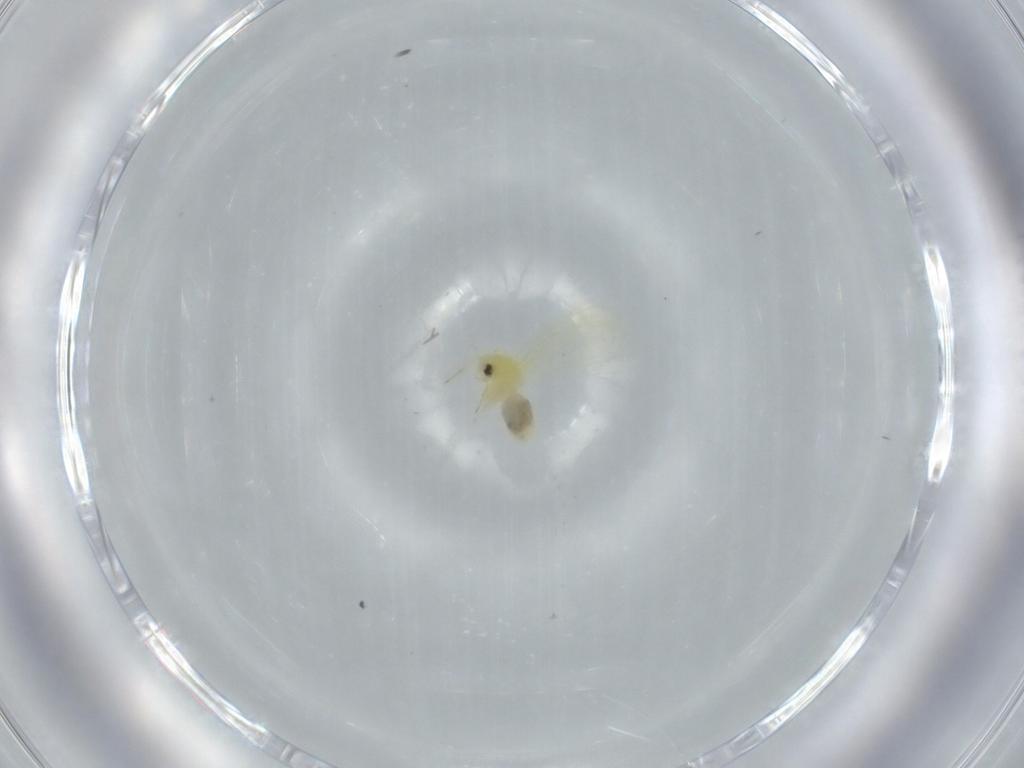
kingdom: Animalia
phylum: Arthropoda
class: Insecta
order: Hemiptera
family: Aleyrodidae
